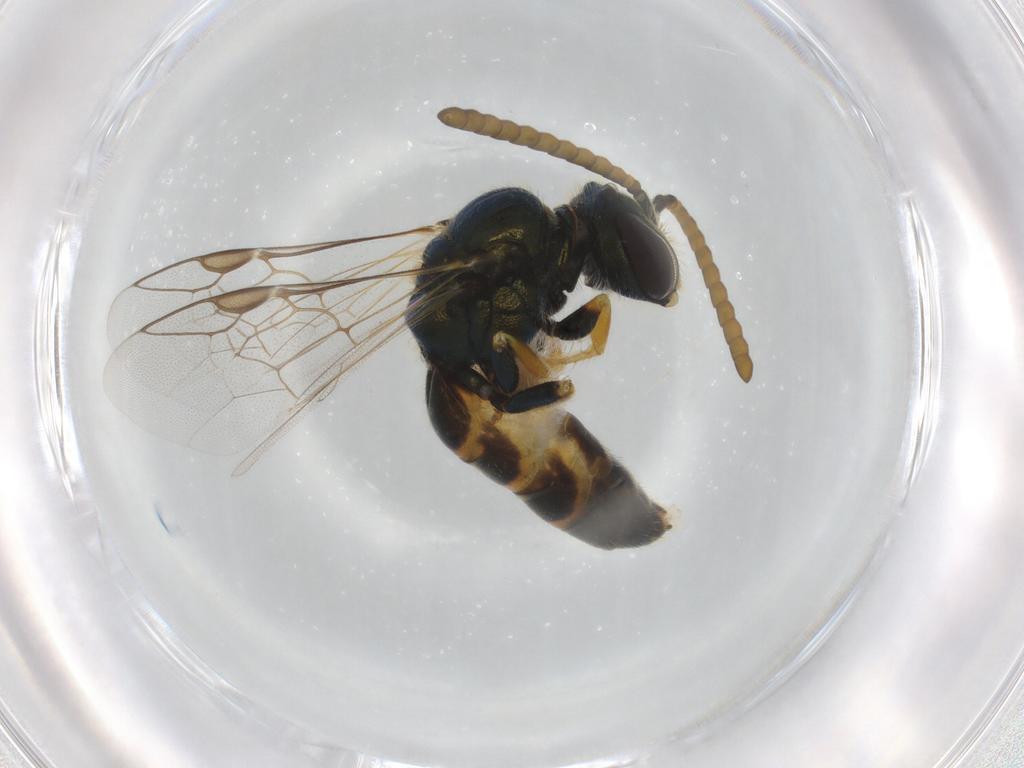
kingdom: Animalia
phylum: Arthropoda
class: Insecta
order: Hymenoptera
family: Halictidae
